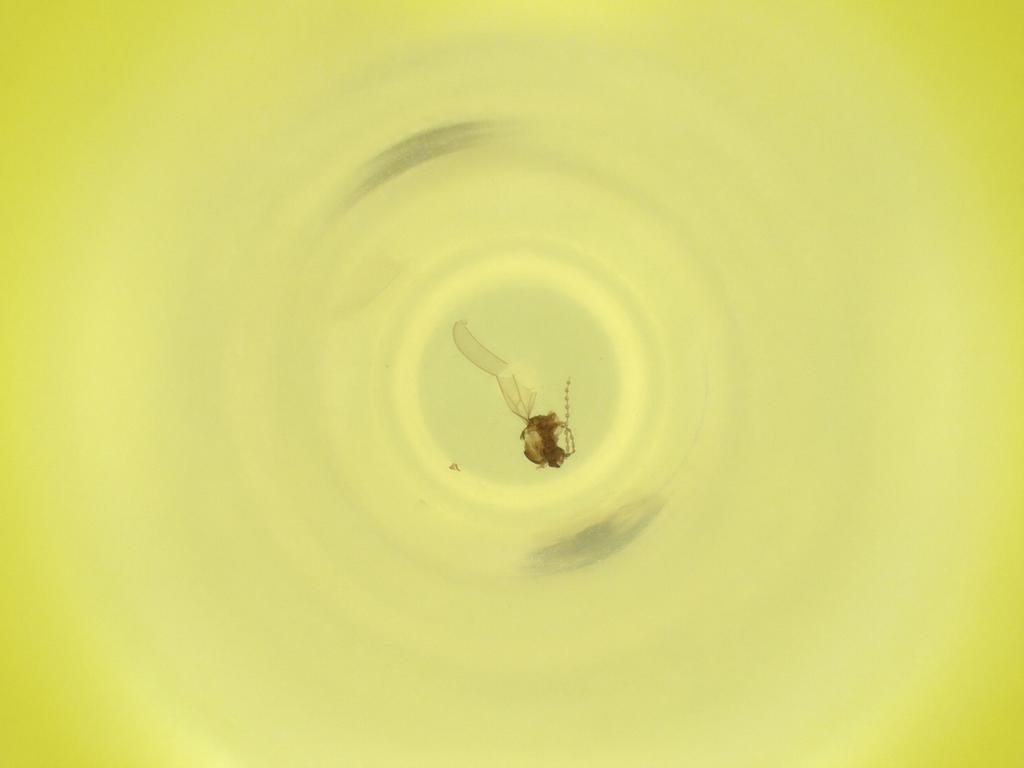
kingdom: Animalia
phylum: Arthropoda
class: Insecta
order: Diptera
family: Cecidomyiidae
